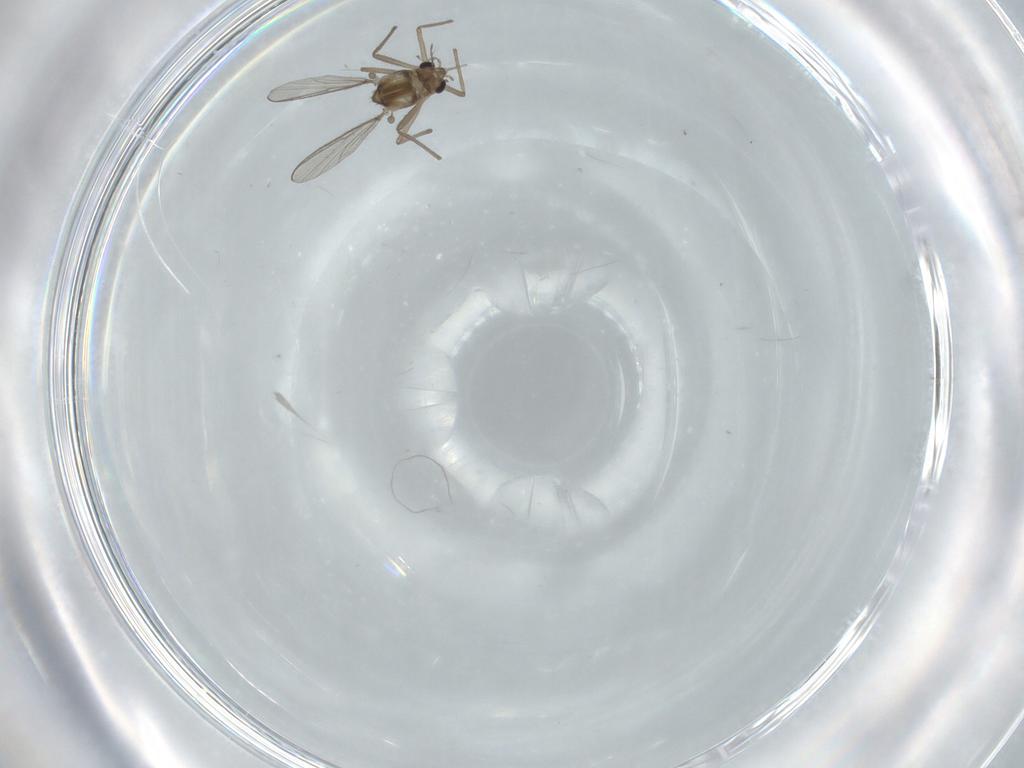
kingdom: Animalia
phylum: Arthropoda
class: Insecta
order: Diptera
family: Chironomidae
